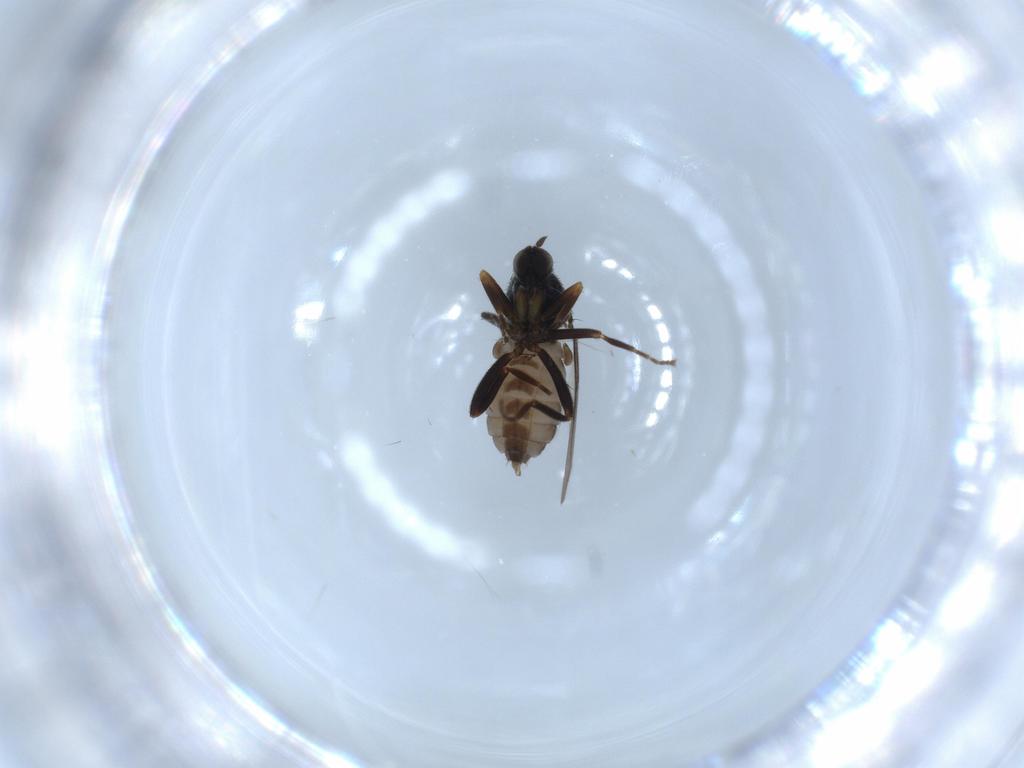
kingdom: Animalia
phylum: Arthropoda
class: Insecta
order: Diptera
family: Hybotidae
